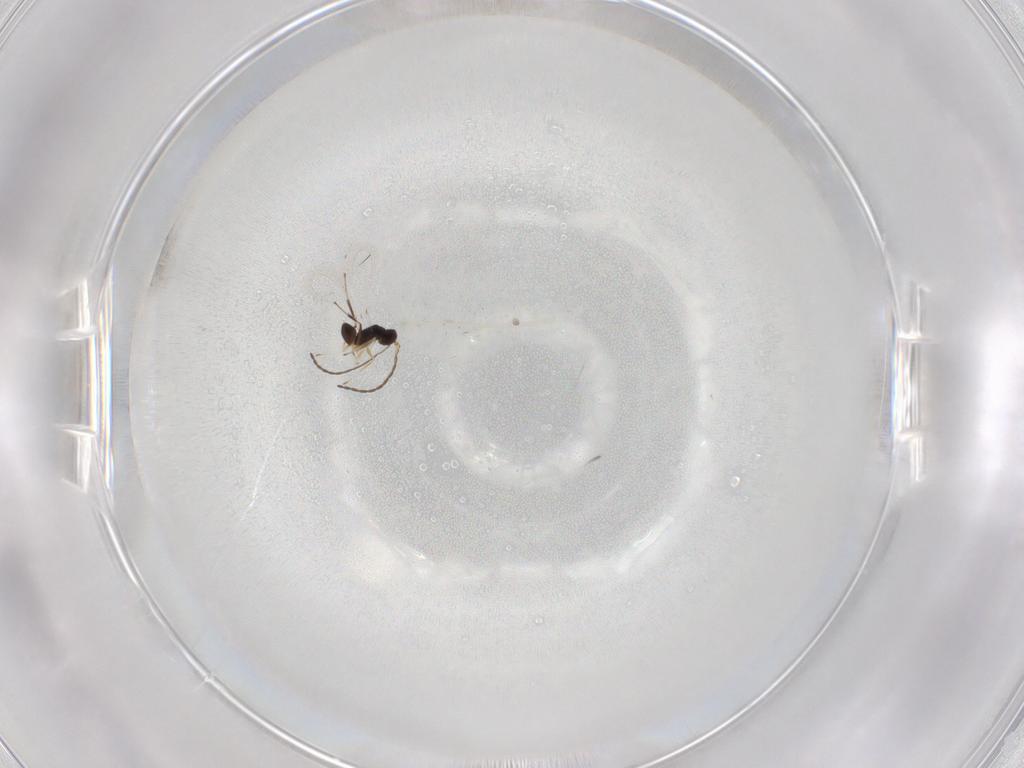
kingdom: Animalia
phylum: Arthropoda
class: Insecta
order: Hymenoptera
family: Mymaridae
